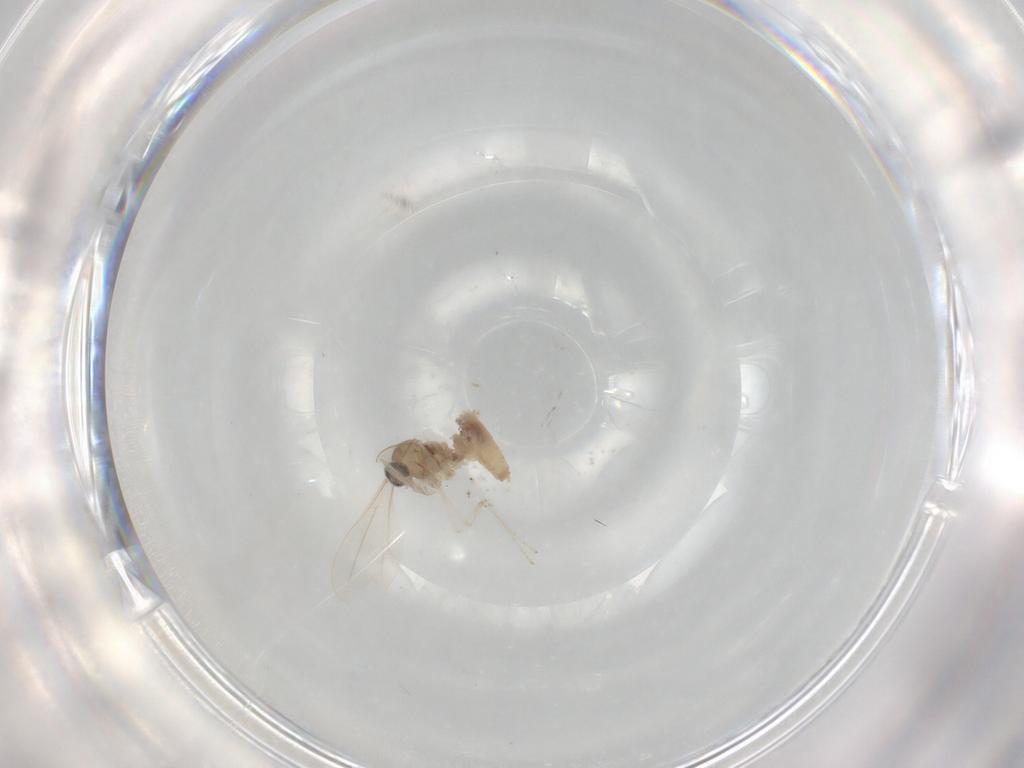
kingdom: Animalia
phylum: Arthropoda
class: Insecta
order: Diptera
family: Cecidomyiidae
